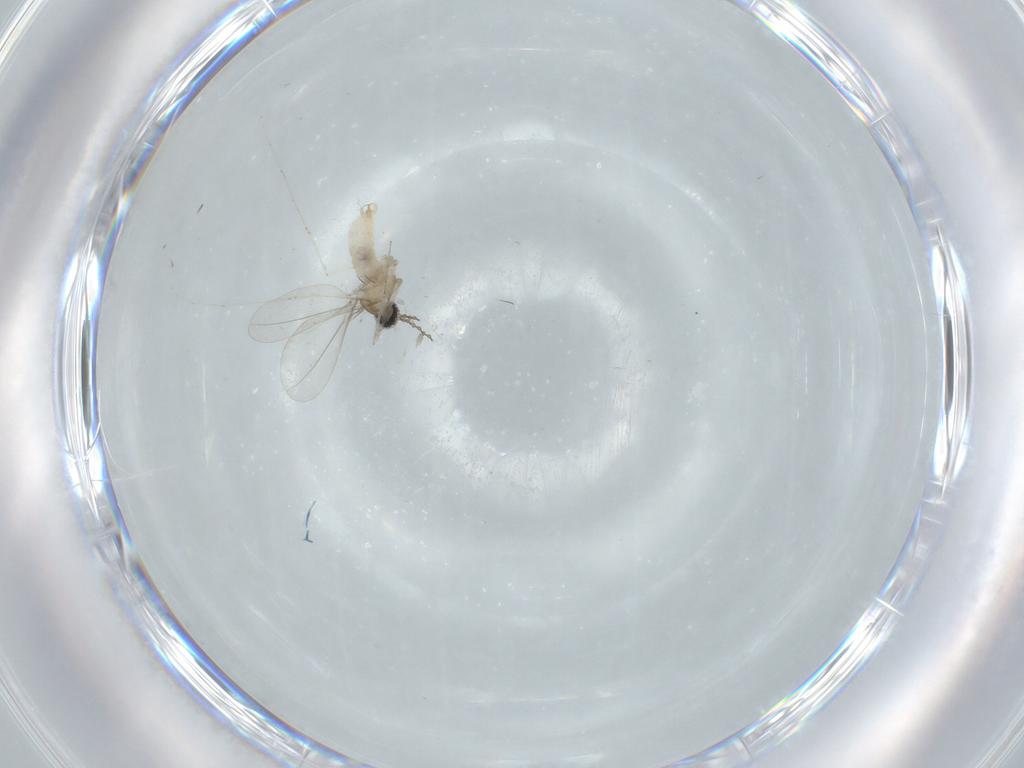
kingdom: Animalia
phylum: Arthropoda
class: Insecta
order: Diptera
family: Cecidomyiidae
